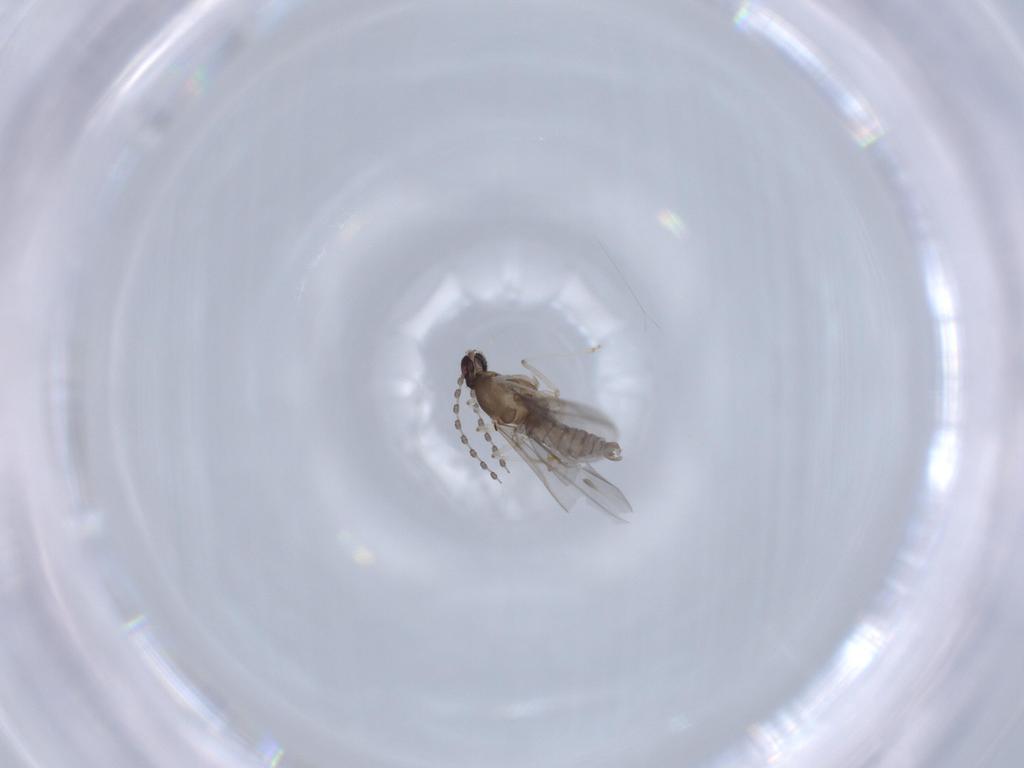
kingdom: Animalia
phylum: Arthropoda
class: Insecta
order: Diptera
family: Cecidomyiidae
